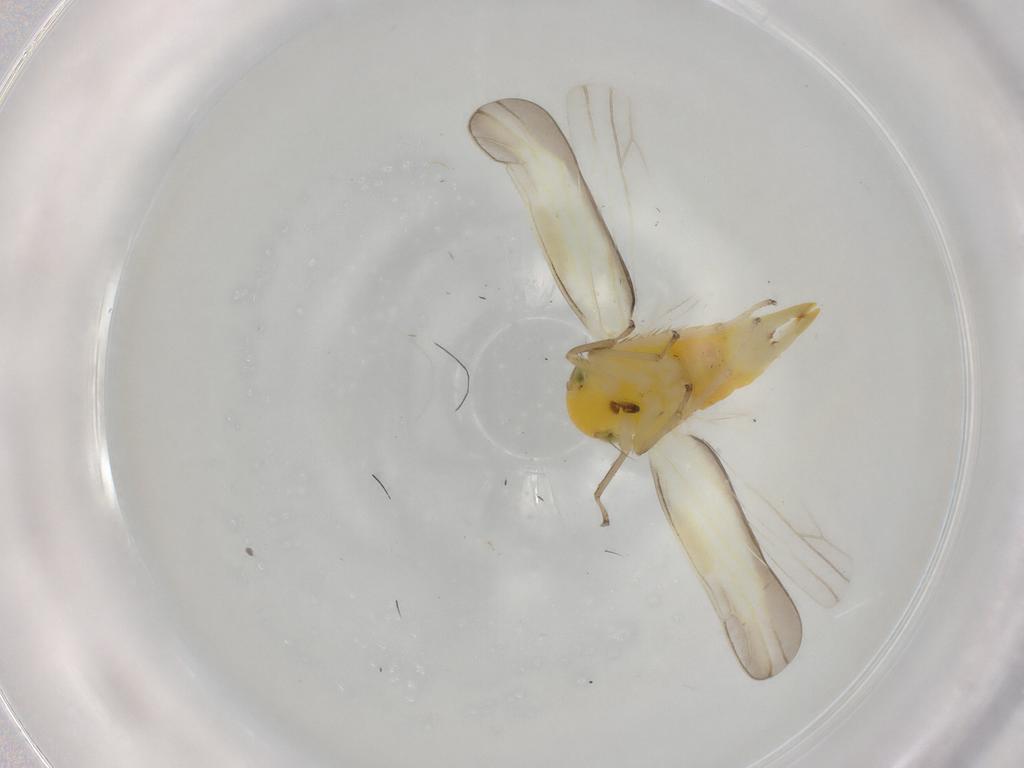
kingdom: Animalia
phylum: Arthropoda
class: Insecta
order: Hemiptera
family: Cicadellidae
